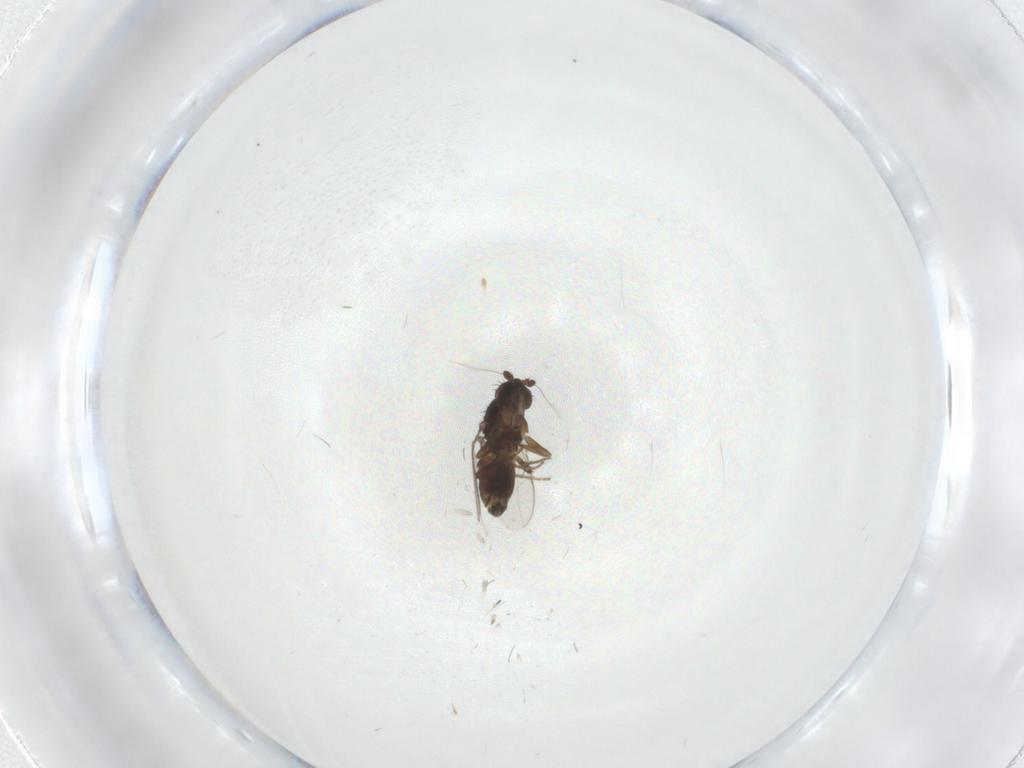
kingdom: Animalia
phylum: Arthropoda
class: Insecta
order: Diptera
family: Sphaeroceridae
